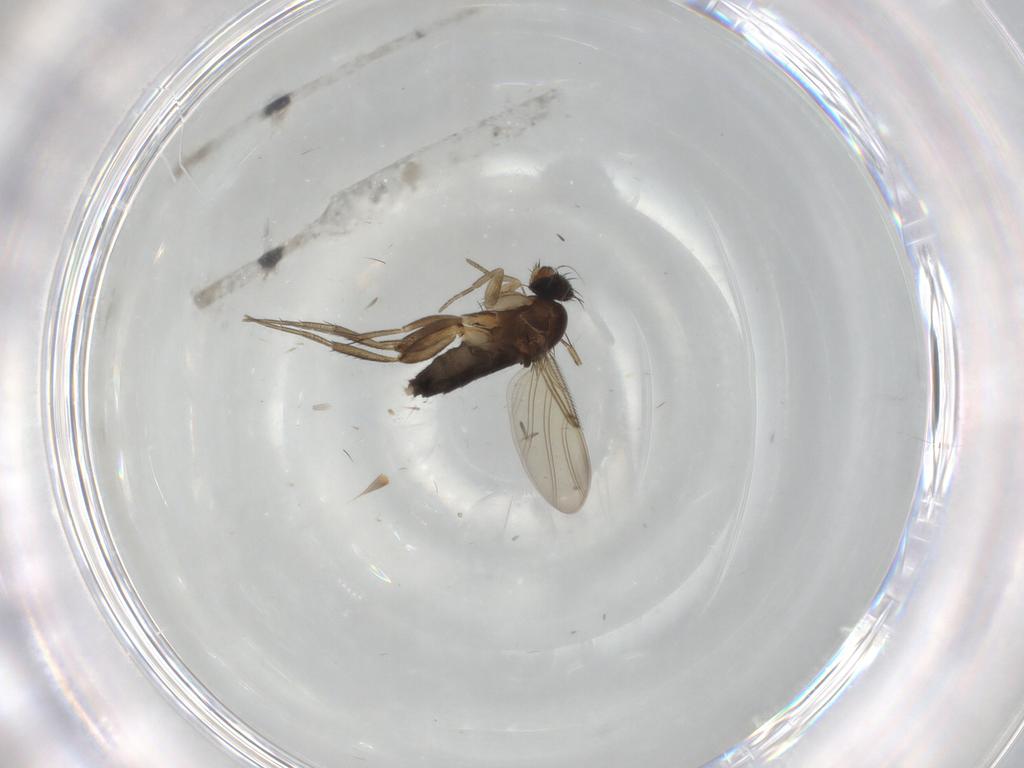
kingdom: Animalia
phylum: Arthropoda
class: Insecta
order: Diptera
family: Phoridae
